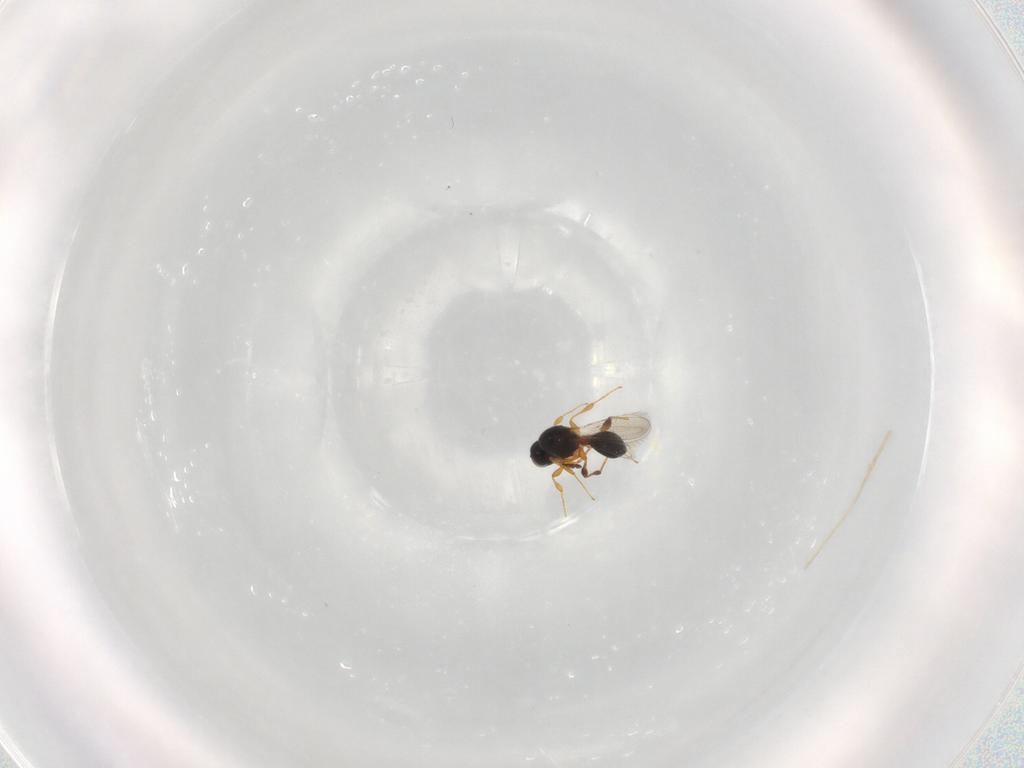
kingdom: Animalia
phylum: Arthropoda
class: Insecta
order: Hymenoptera
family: Platygastridae
